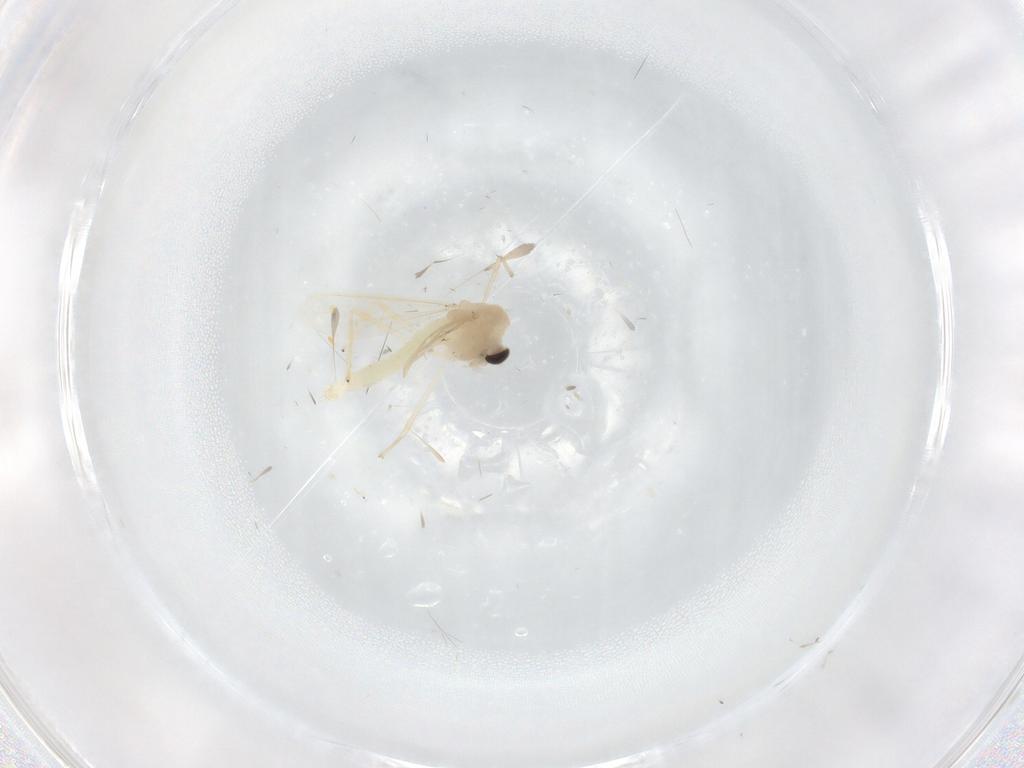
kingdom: Animalia
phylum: Arthropoda
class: Insecta
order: Diptera
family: Chironomidae
